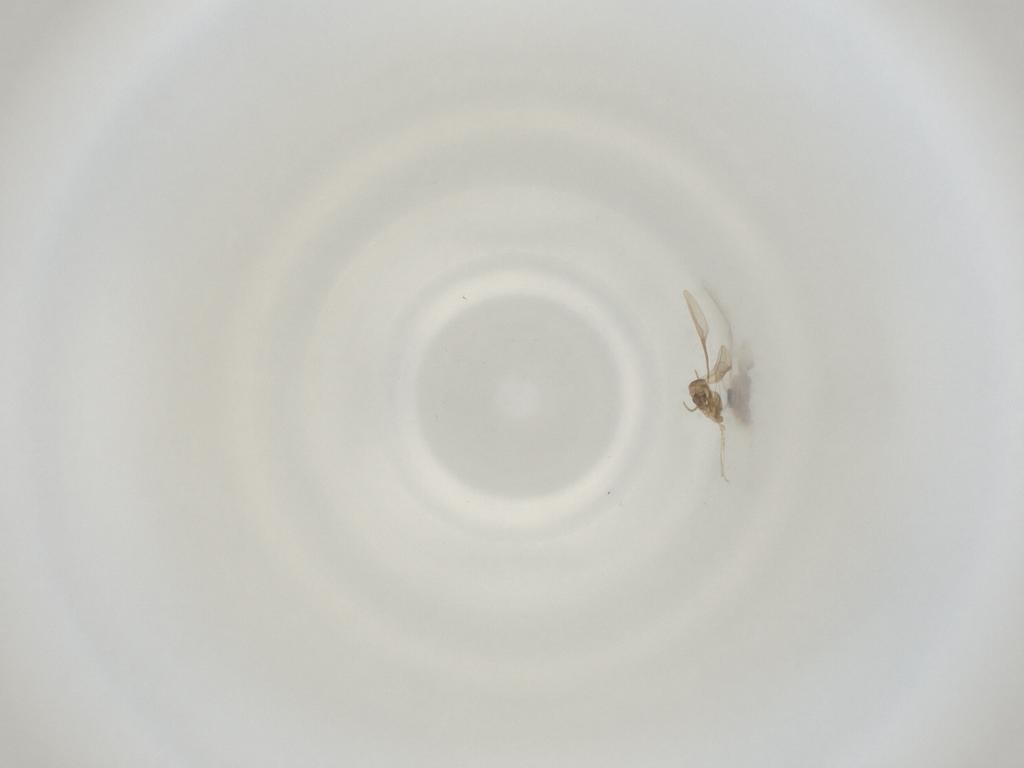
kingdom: Animalia
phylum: Arthropoda
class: Insecta
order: Diptera
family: Cecidomyiidae
